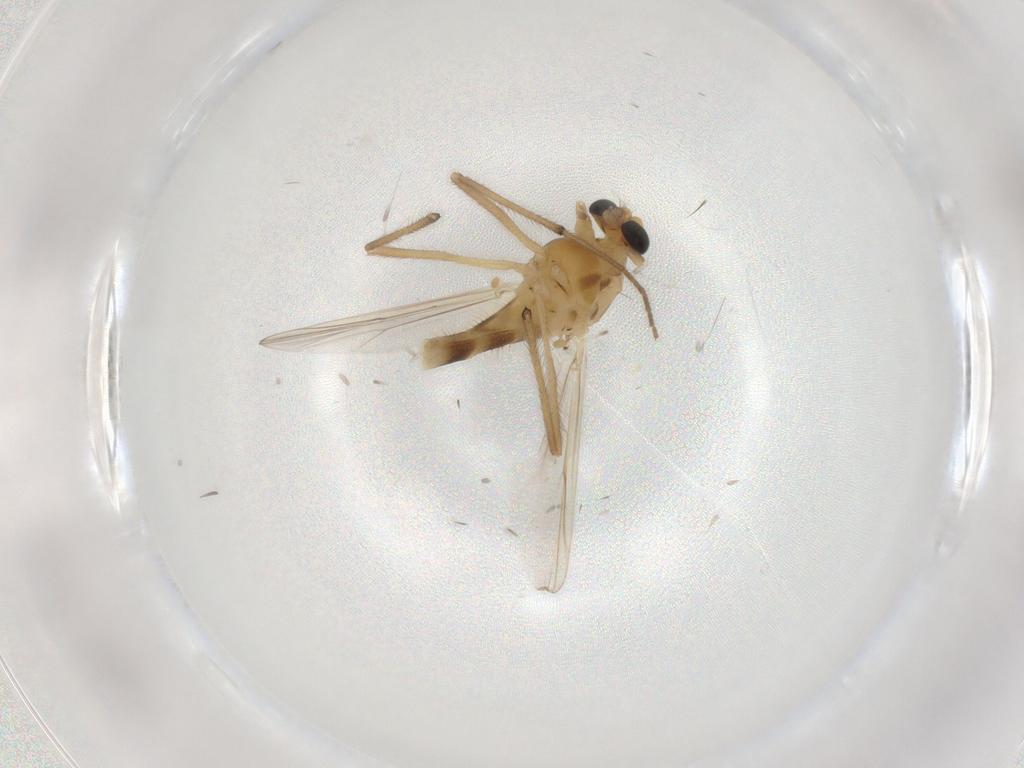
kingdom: Animalia
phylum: Arthropoda
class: Insecta
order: Diptera
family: Chironomidae
